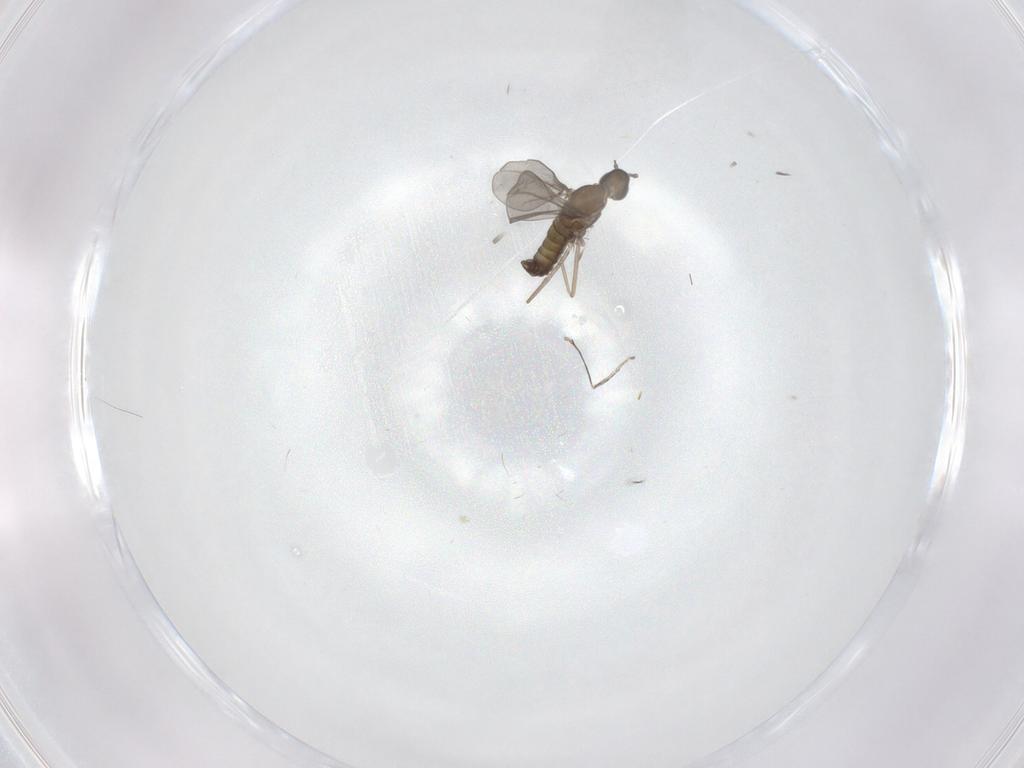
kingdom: Animalia
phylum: Arthropoda
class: Insecta
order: Diptera
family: Cecidomyiidae
